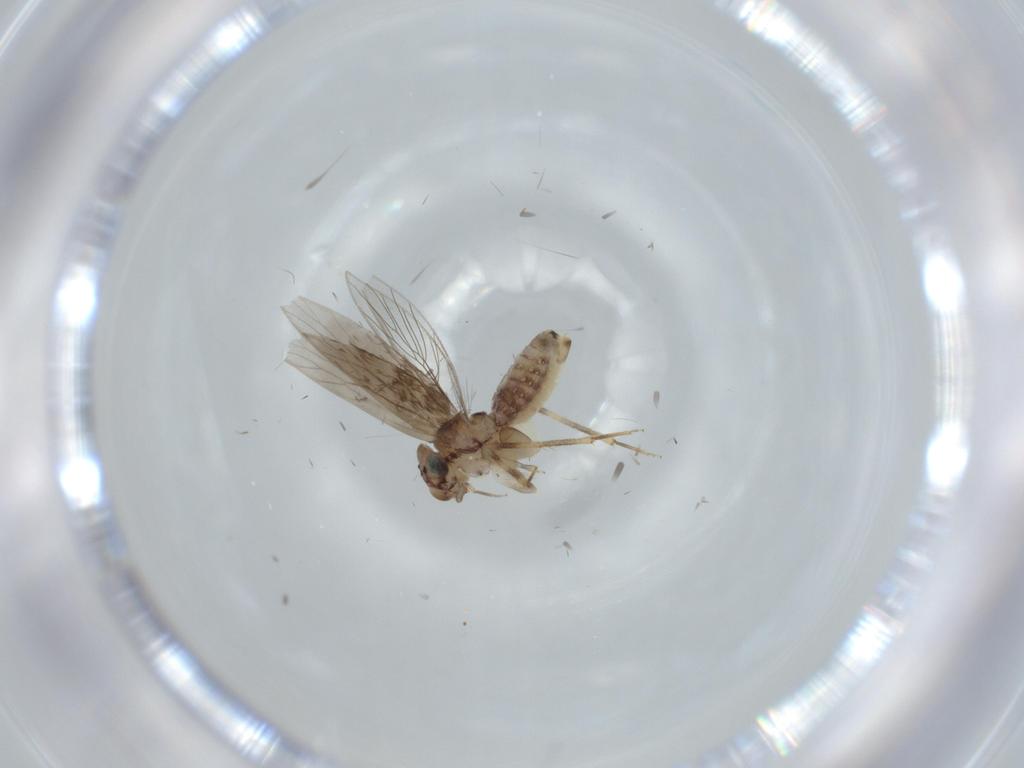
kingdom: Animalia
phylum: Arthropoda
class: Insecta
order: Psocodea
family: Lepidopsocidae
